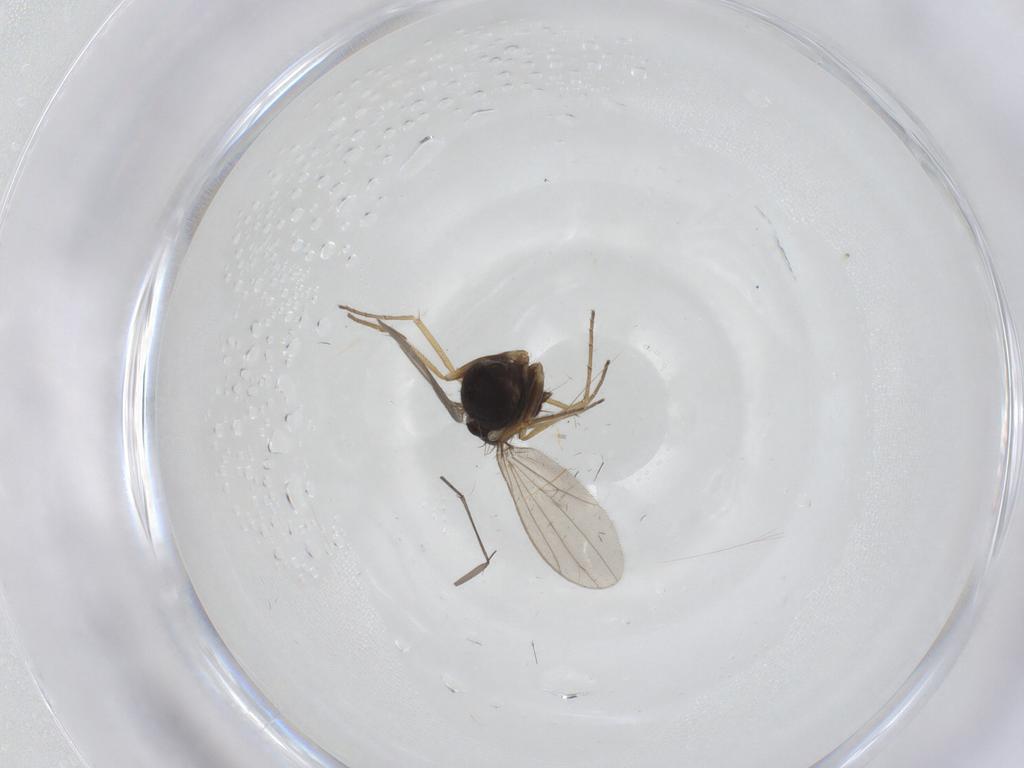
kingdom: Animalia
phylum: Arthropoda
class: Insecta
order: Diptera
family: Dolichopodidae
